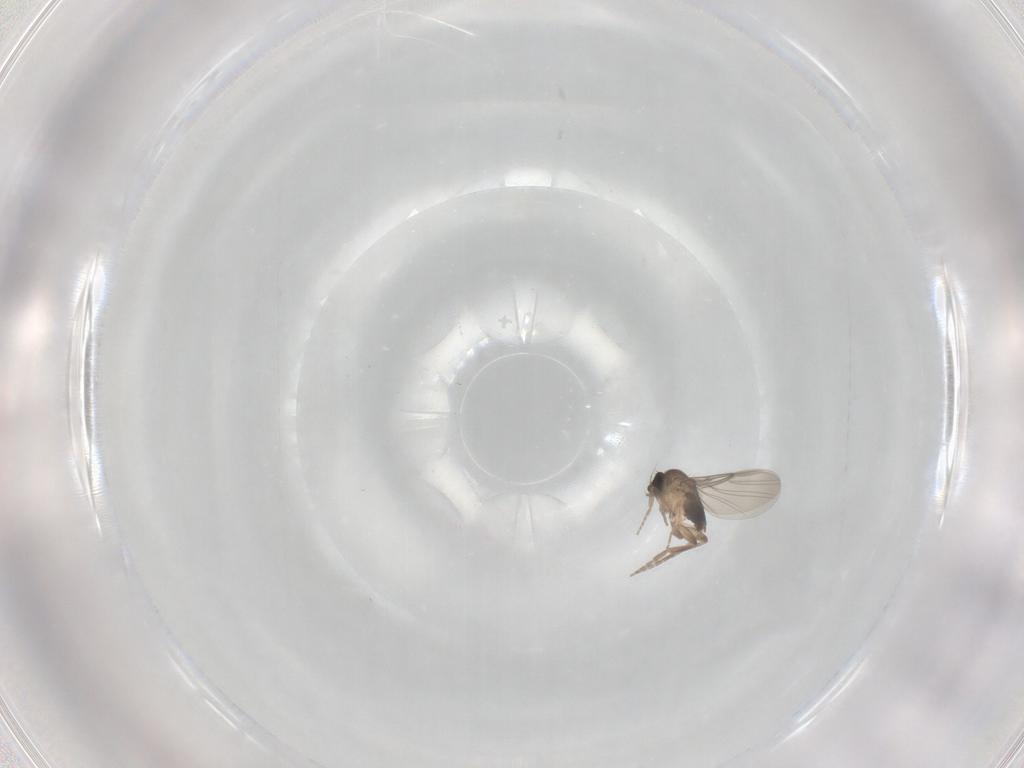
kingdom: Animalia
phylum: Arthropoda
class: Insecta
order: Diptera
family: Phoridae
